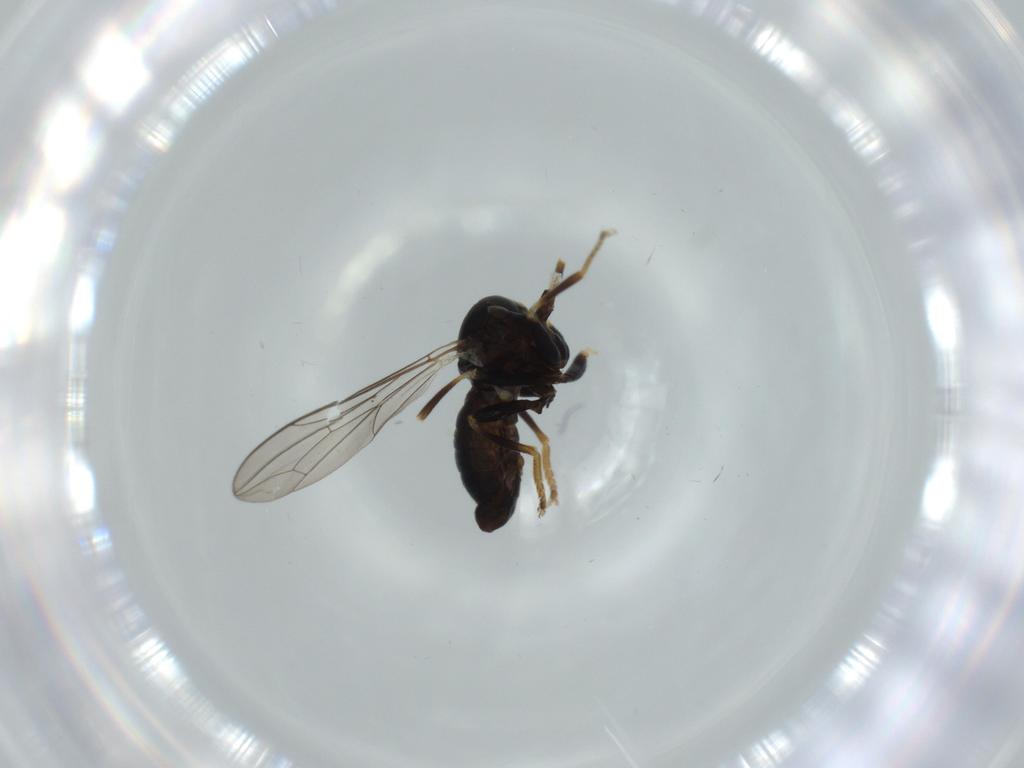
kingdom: Animalia
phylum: Arthropoda
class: Insecta
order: Diptera
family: Pipunculidae
